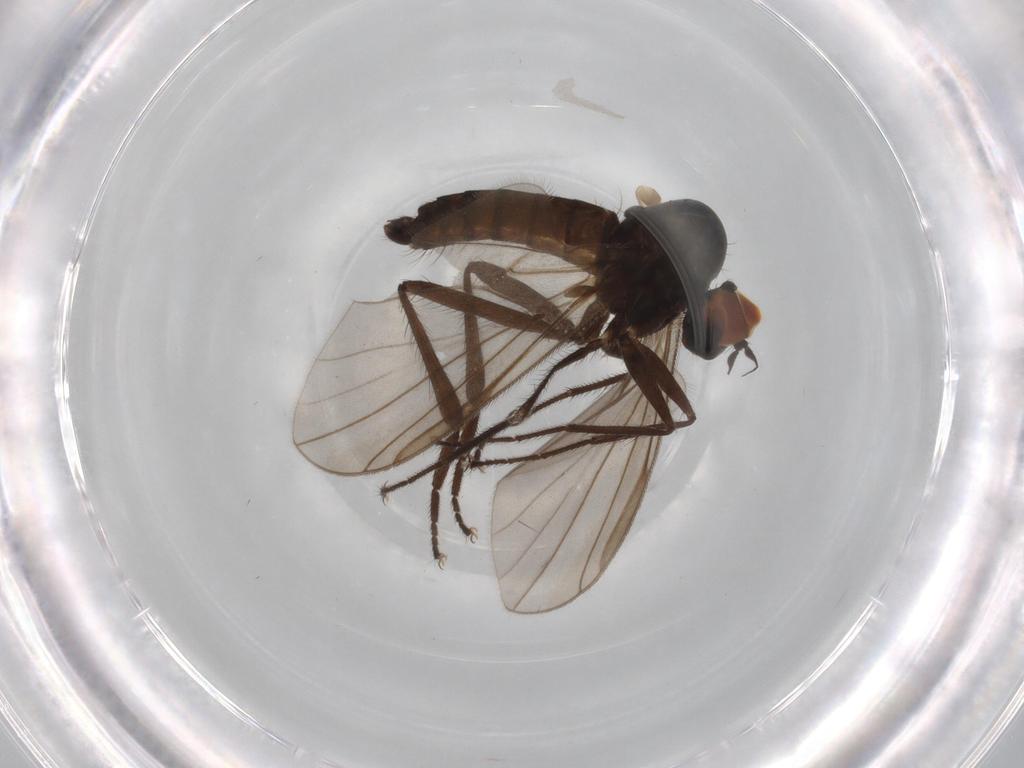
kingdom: Animalia
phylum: Arthropoda
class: Insecta
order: Diptera
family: Hybotidae
